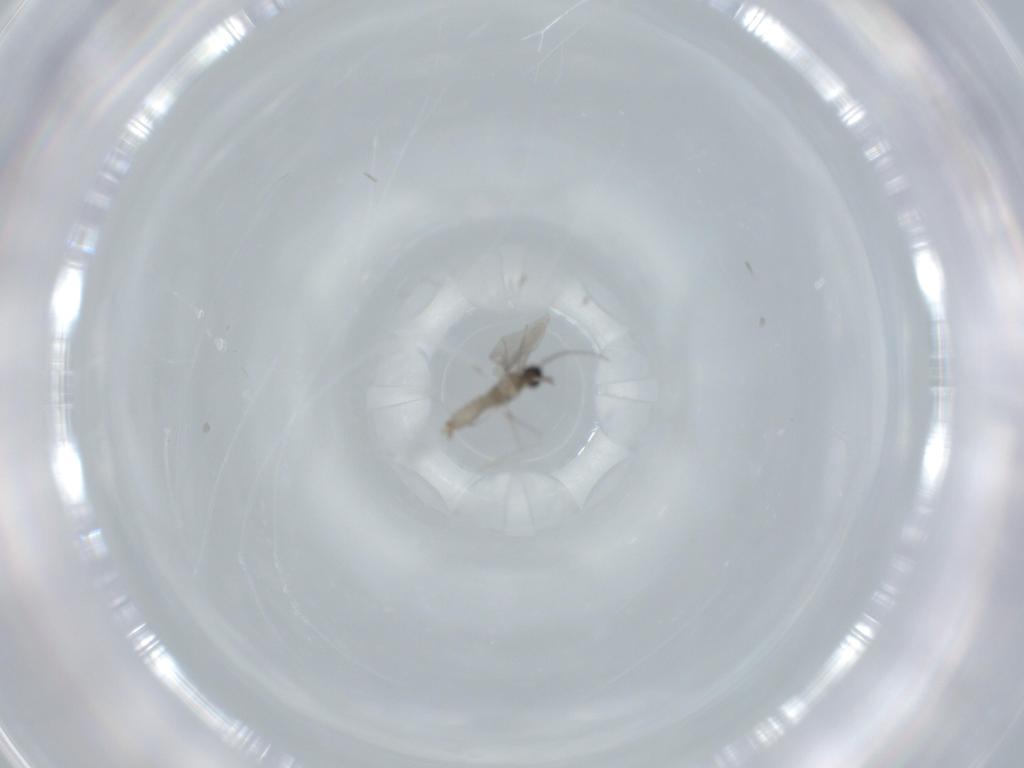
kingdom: Animalia
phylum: Arthropoda
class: Insecta
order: Diptera
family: Cecidomyiidae
